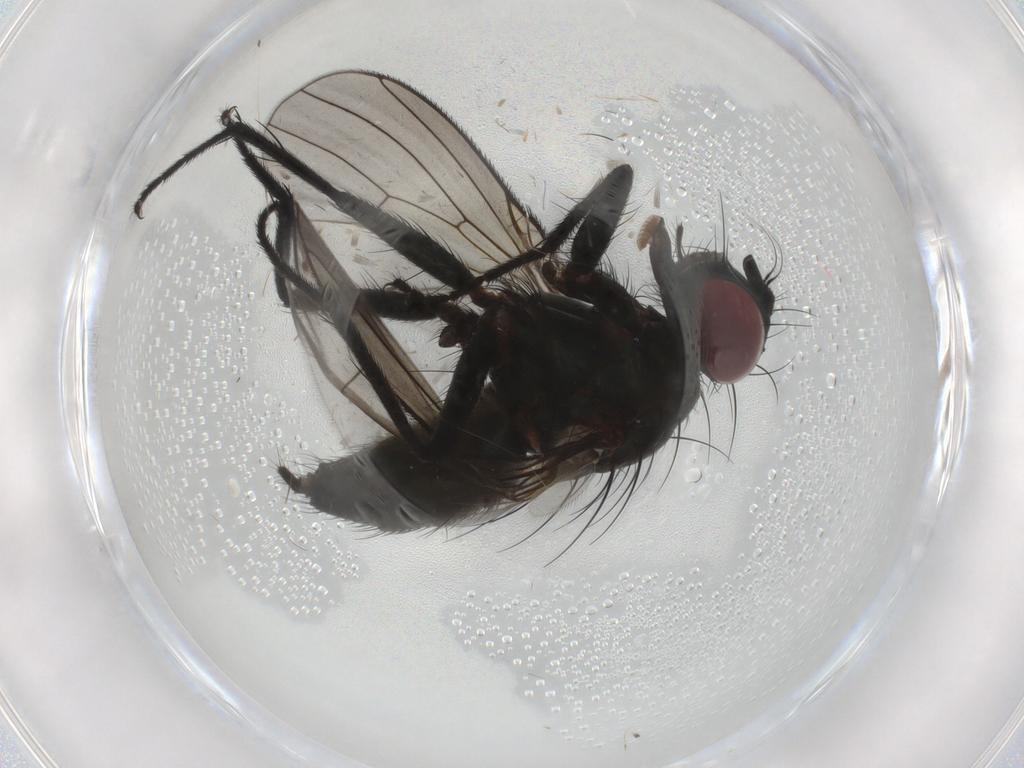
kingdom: Animalia
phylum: Arthropoda
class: Insecta
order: Diptera
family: Muscidae
